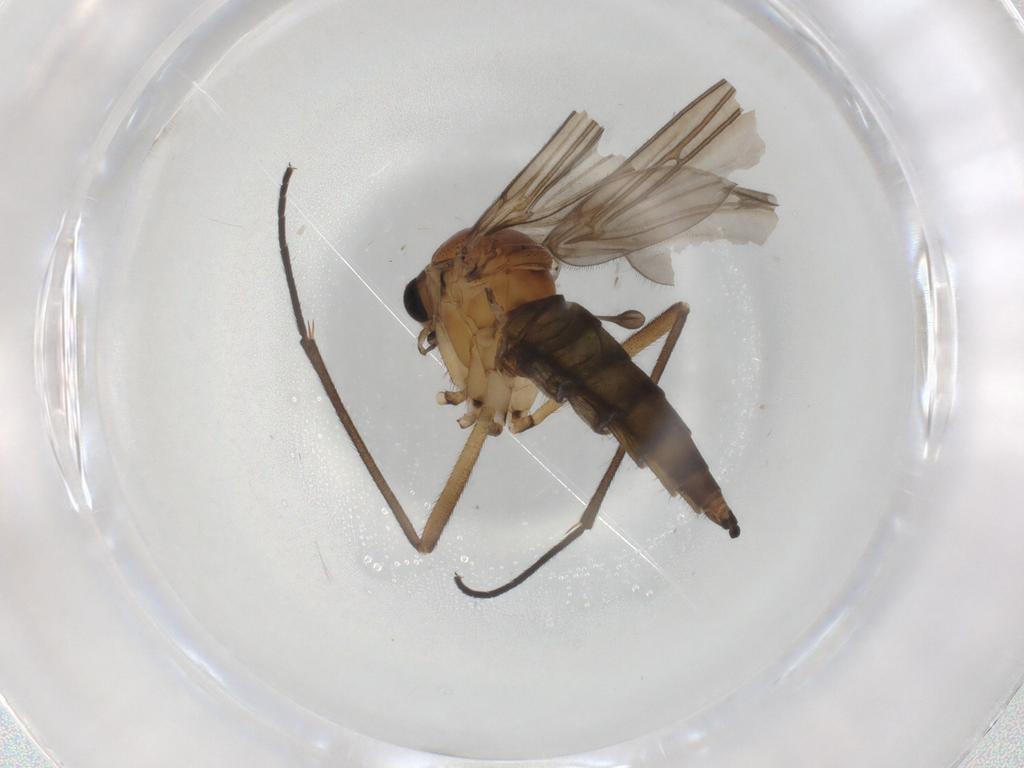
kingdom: Animalia
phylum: Arthropoda
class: Insecta
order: Diptera
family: Sciaridae
